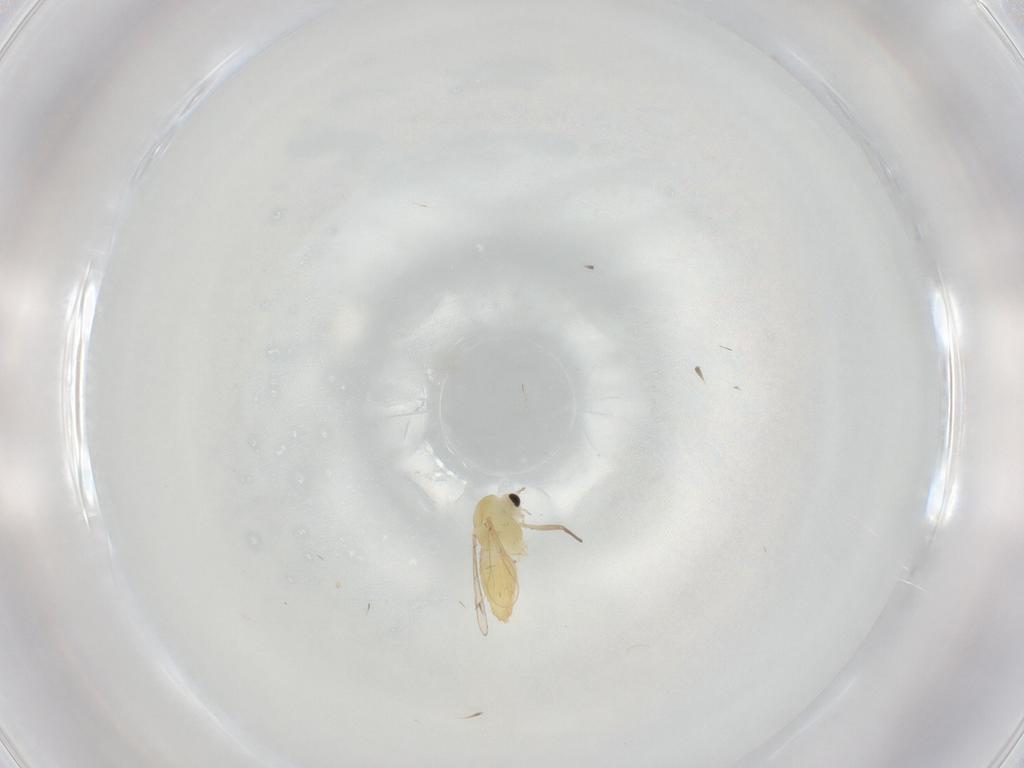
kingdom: Animalia
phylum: Arthropoda
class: Insecta
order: Diptera
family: Chironomidae
